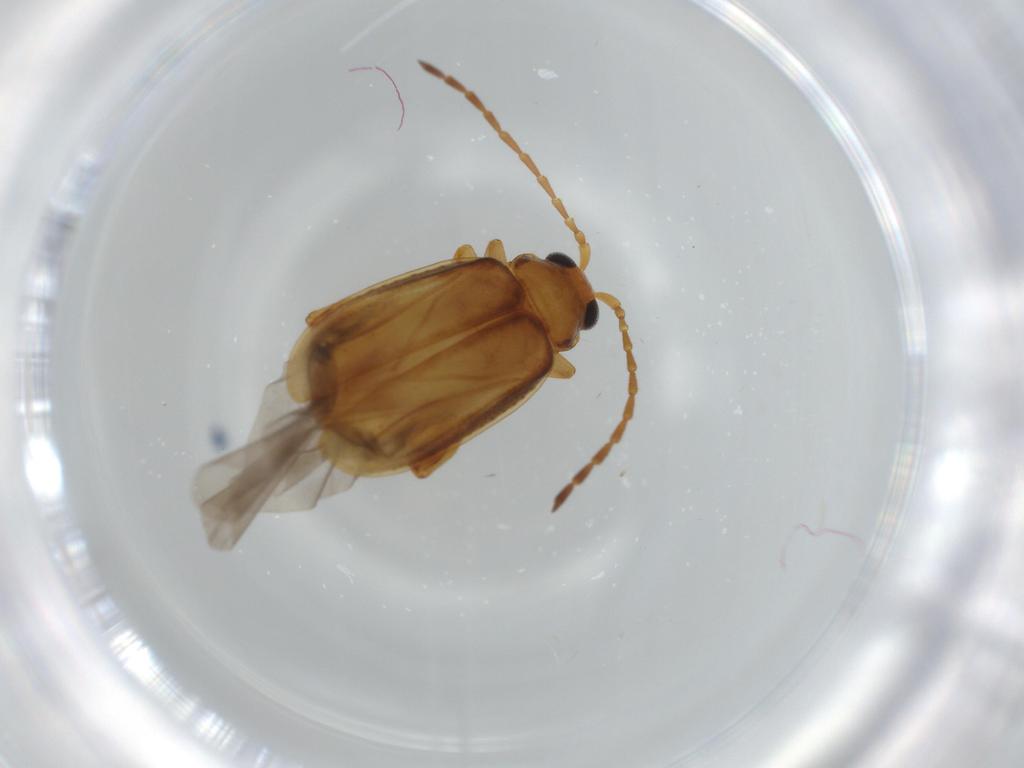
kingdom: Animalia
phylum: Arthropoda
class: Insecta
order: Coleoptera
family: Chrysomelidae
